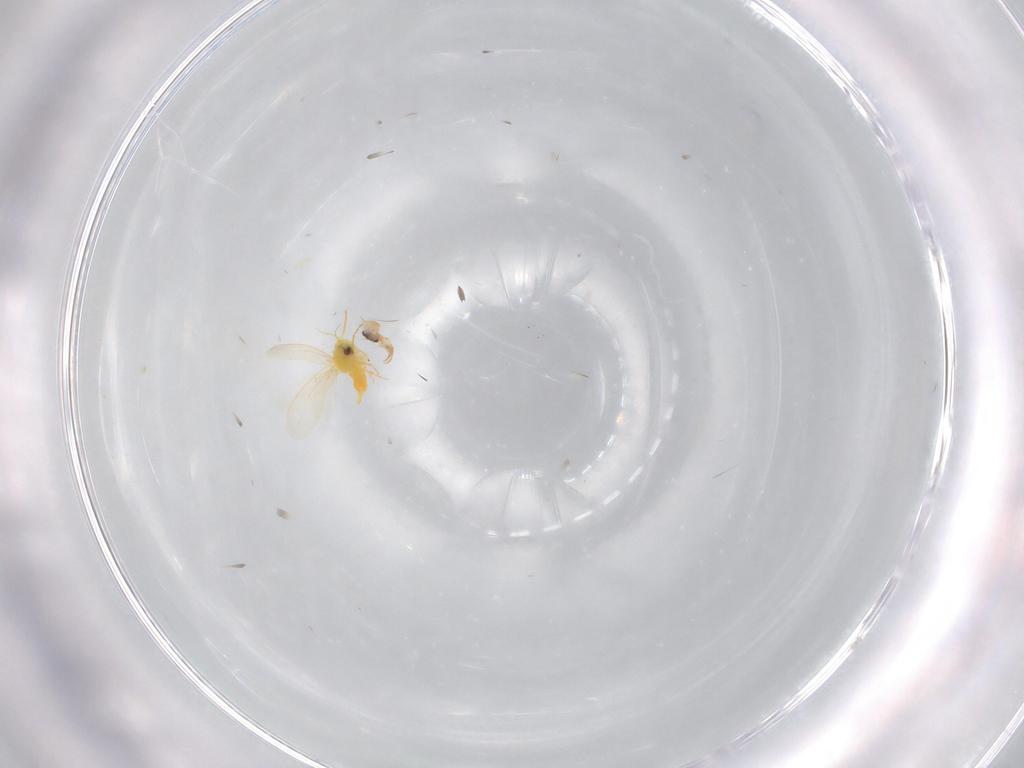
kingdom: Animalia
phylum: Arthropoda
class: Insecta
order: Hemiptera
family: Aleyrodidae
